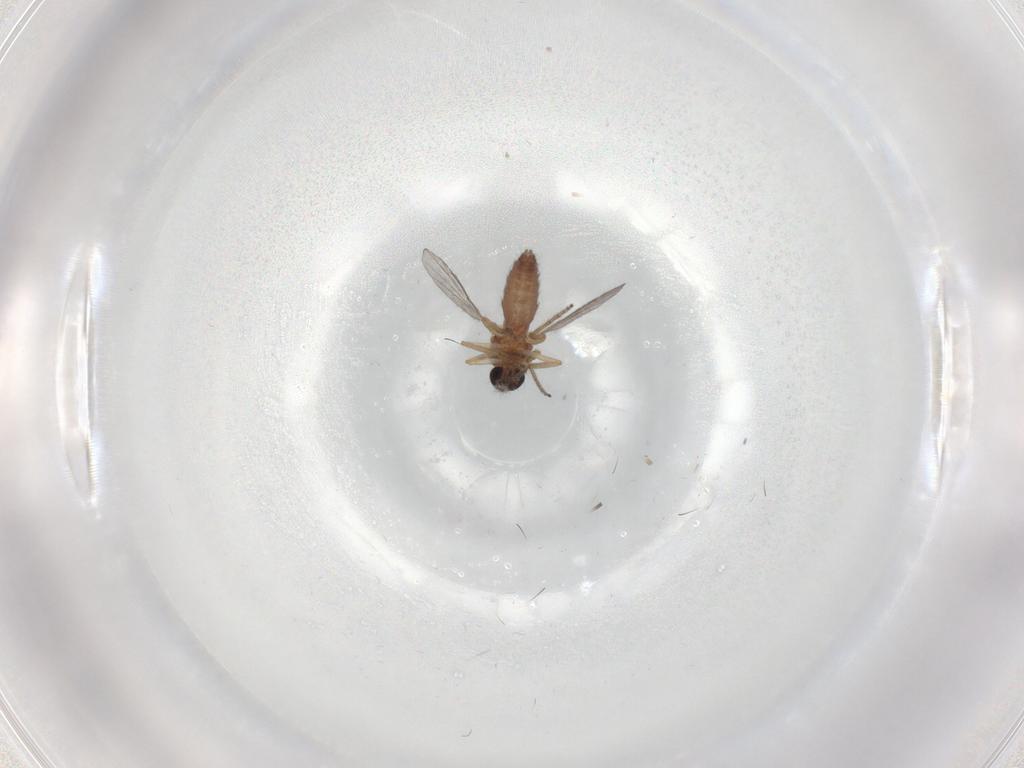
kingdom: Animalia
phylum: Arthropoda
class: Insecta
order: Diptera
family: Ceratopogonidae
